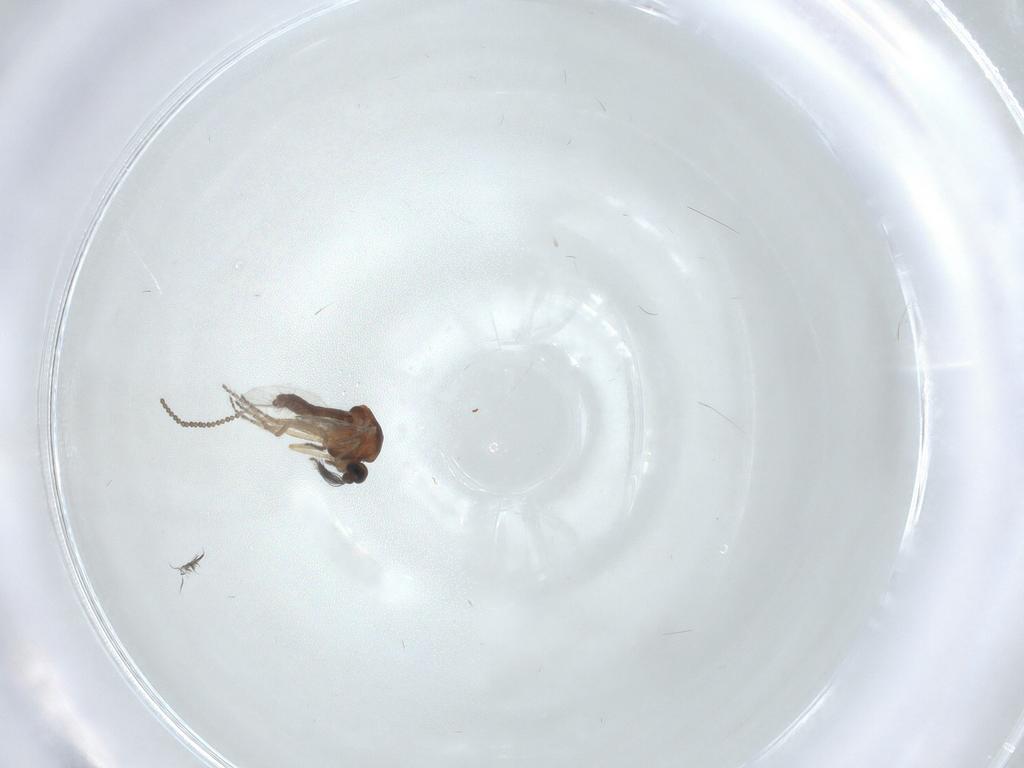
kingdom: Animalia
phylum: Arthropoda
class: Insecta
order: Diptera
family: Ceratopogonidae
